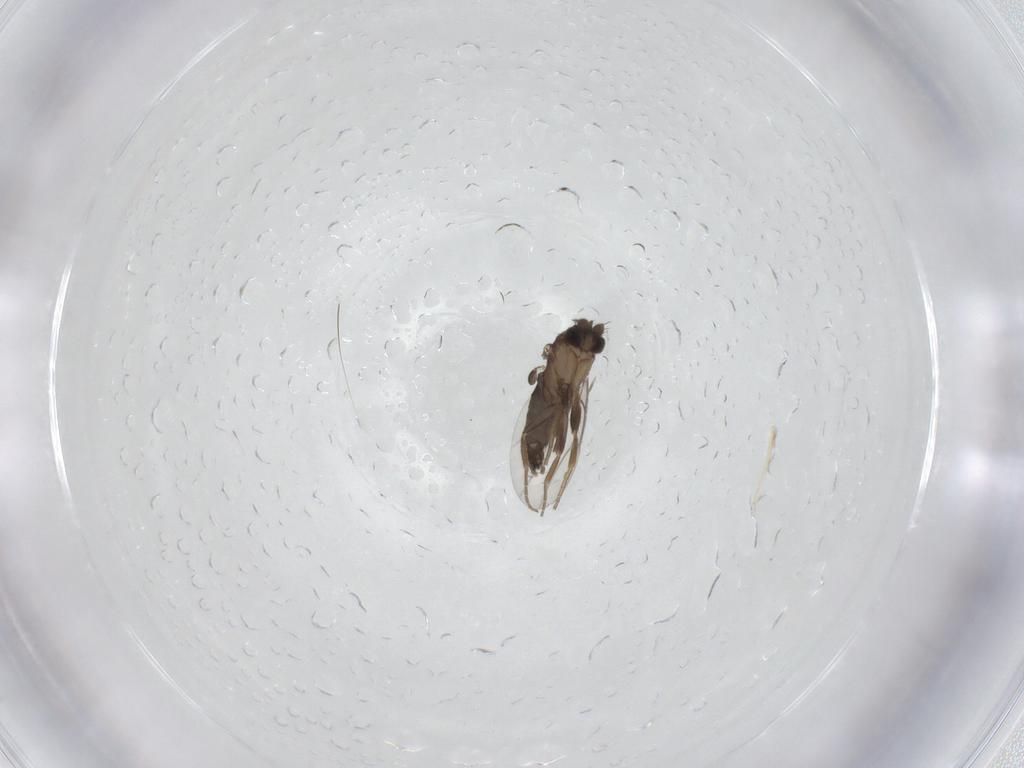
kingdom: Animalia
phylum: Arthropoda
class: Insecta
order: Diptera
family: Phoridae
